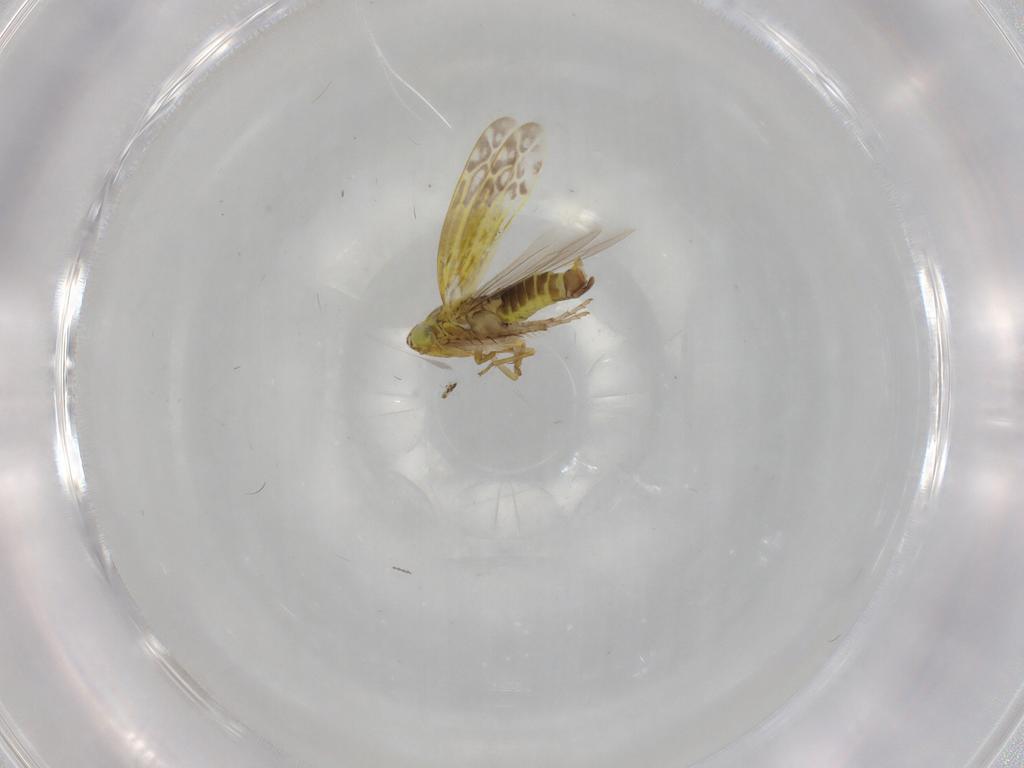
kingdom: Animalia
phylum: Arthropoda
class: Insecta
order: Hemiptera
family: Cicadellidae
